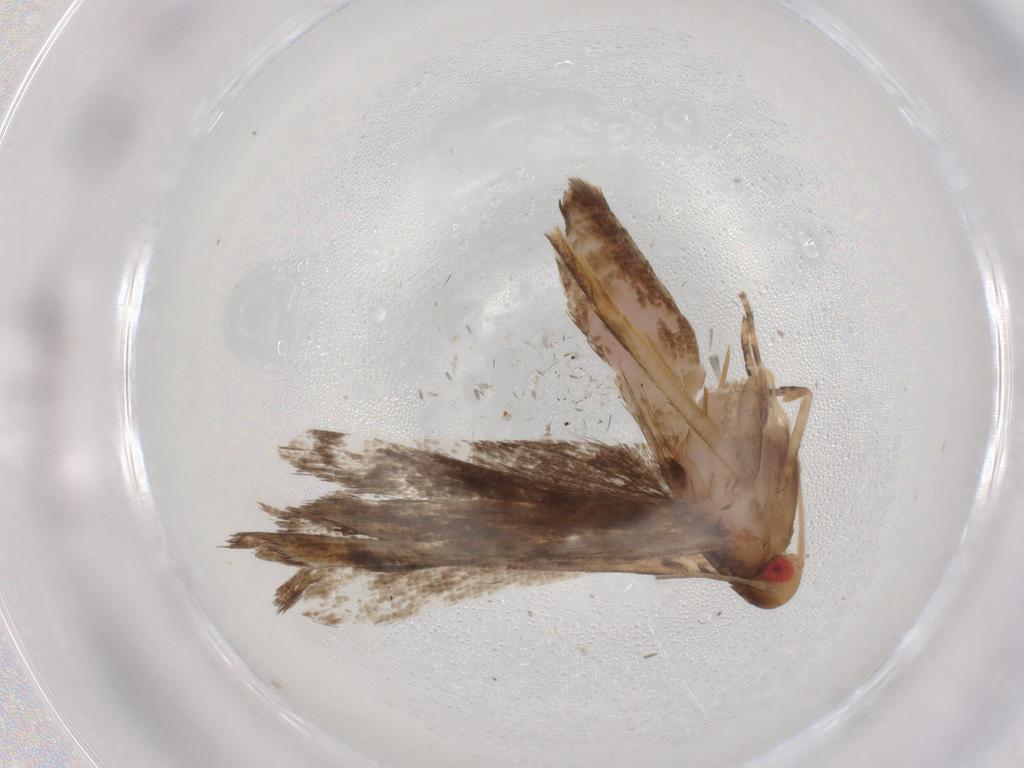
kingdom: Animalia
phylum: Arthropoda
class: Insecta
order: Lepidoptera
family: Gelechiidae
